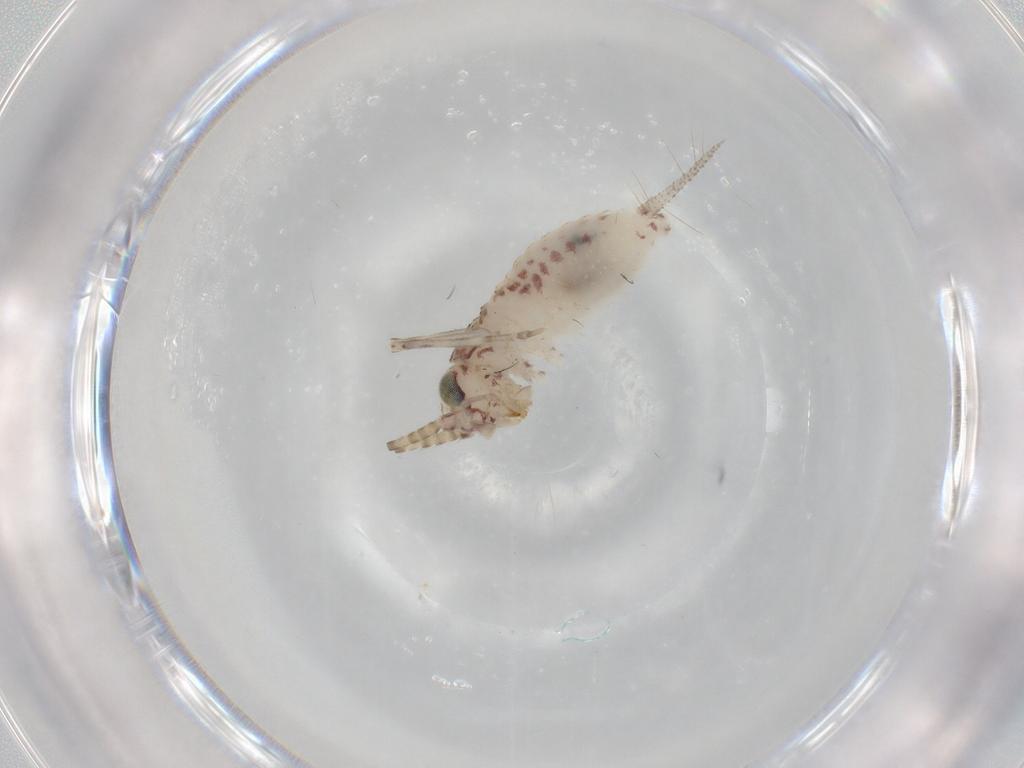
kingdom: Animalia
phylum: Arthropoda
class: Insecta
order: Orthoptera
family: Trigonidiidae
